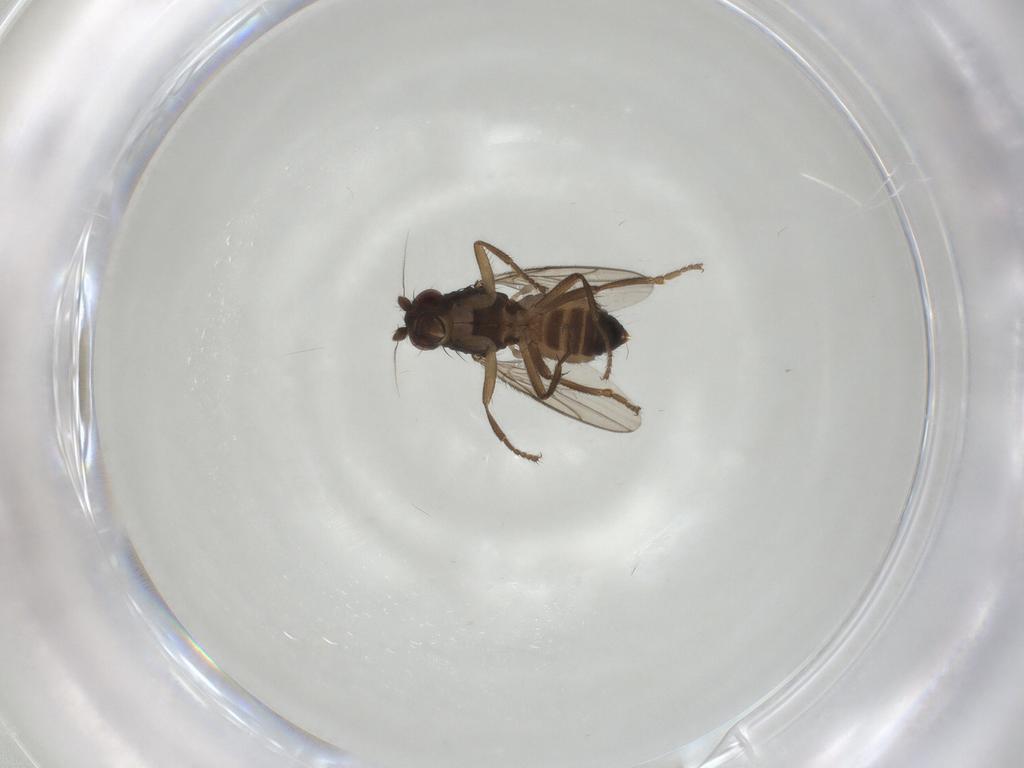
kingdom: Animalia
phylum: Arthropoda
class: Insecta
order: Diptera
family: Sphaeroceridae
